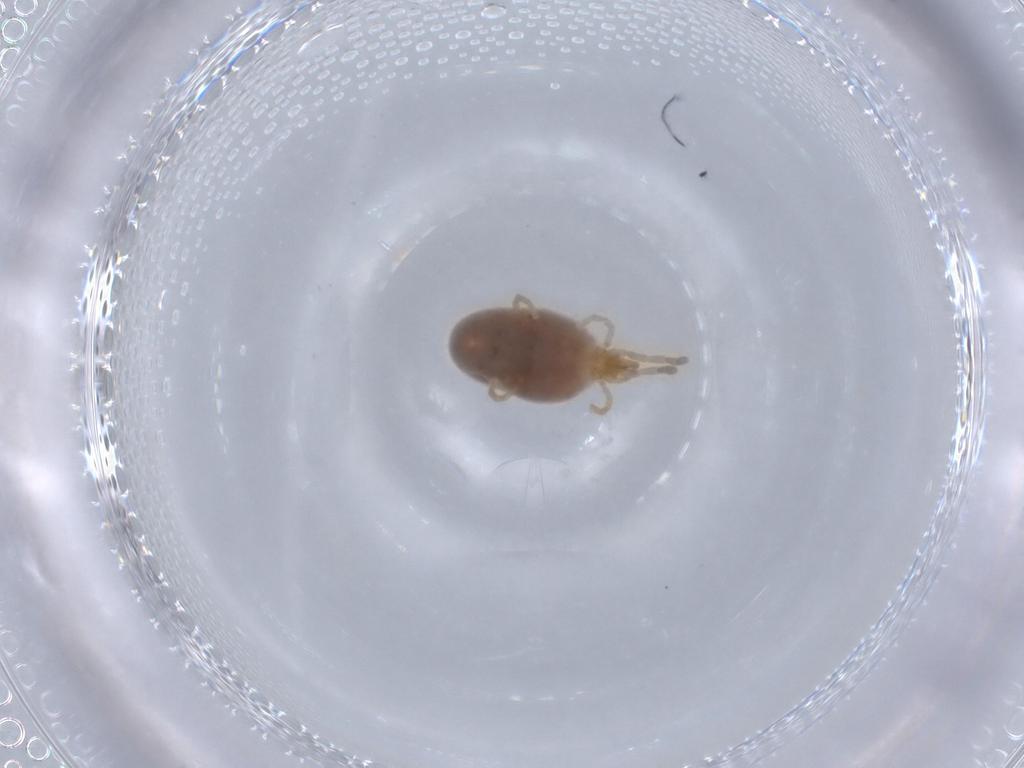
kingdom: Animalia
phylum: Arthropoda
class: Arachnida
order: Trombidiformes
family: Trombidiidae
